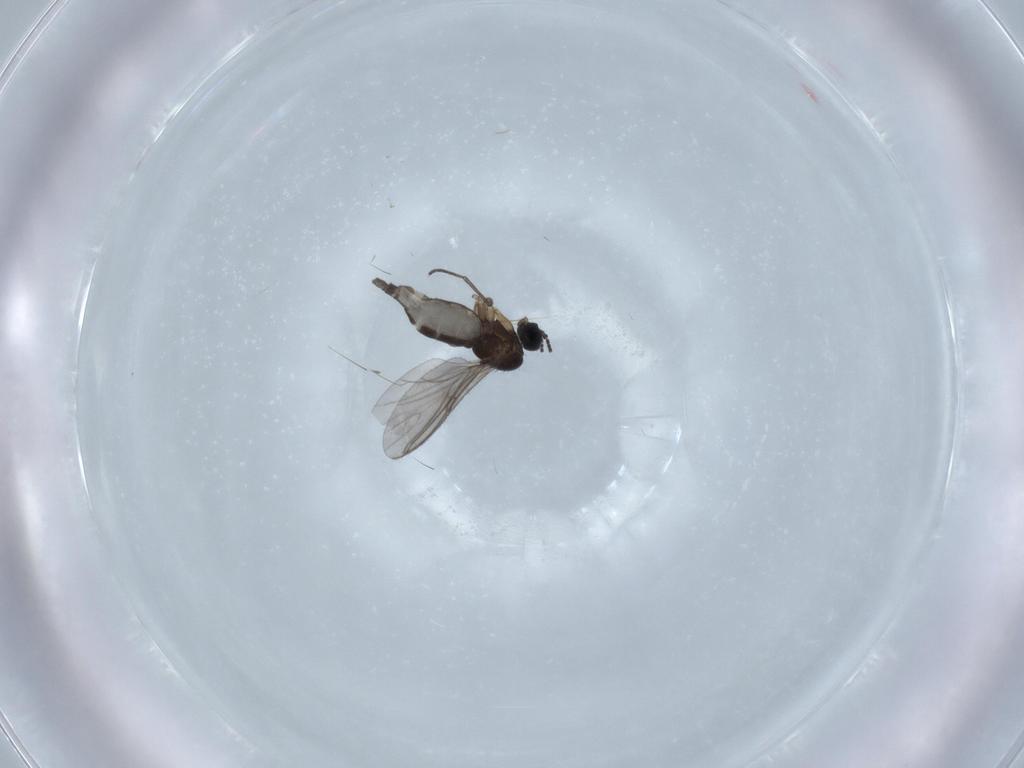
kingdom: Animalia
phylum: Arthropoda
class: Insecta
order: Diptera
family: Sciaridae
